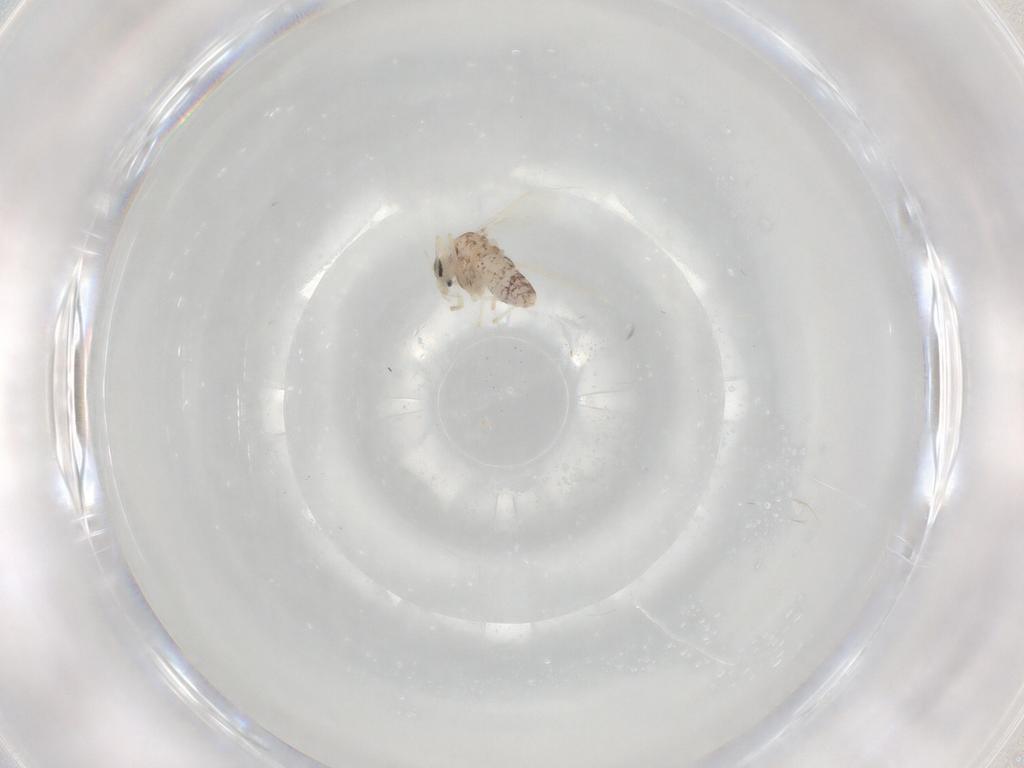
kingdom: Animalia
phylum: Arthropoda
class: Insecta
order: Diptera
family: Chironomidae
